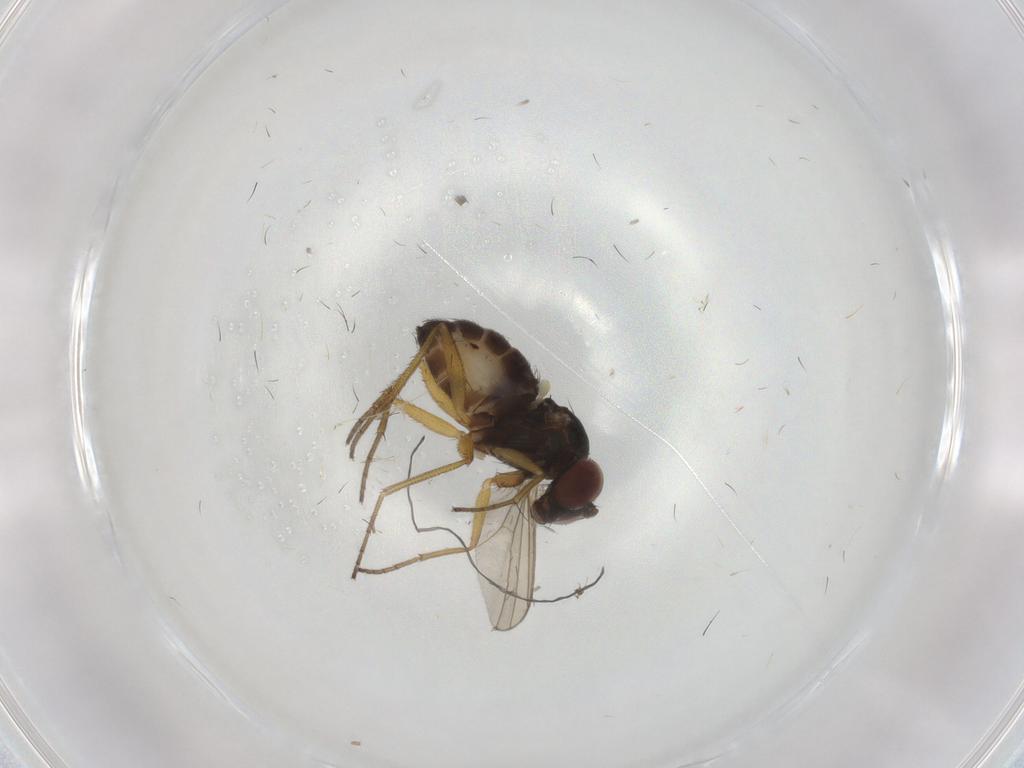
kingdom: Animalia
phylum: Arthropoda
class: Insecta
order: Diptera
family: Dolichopodidae
